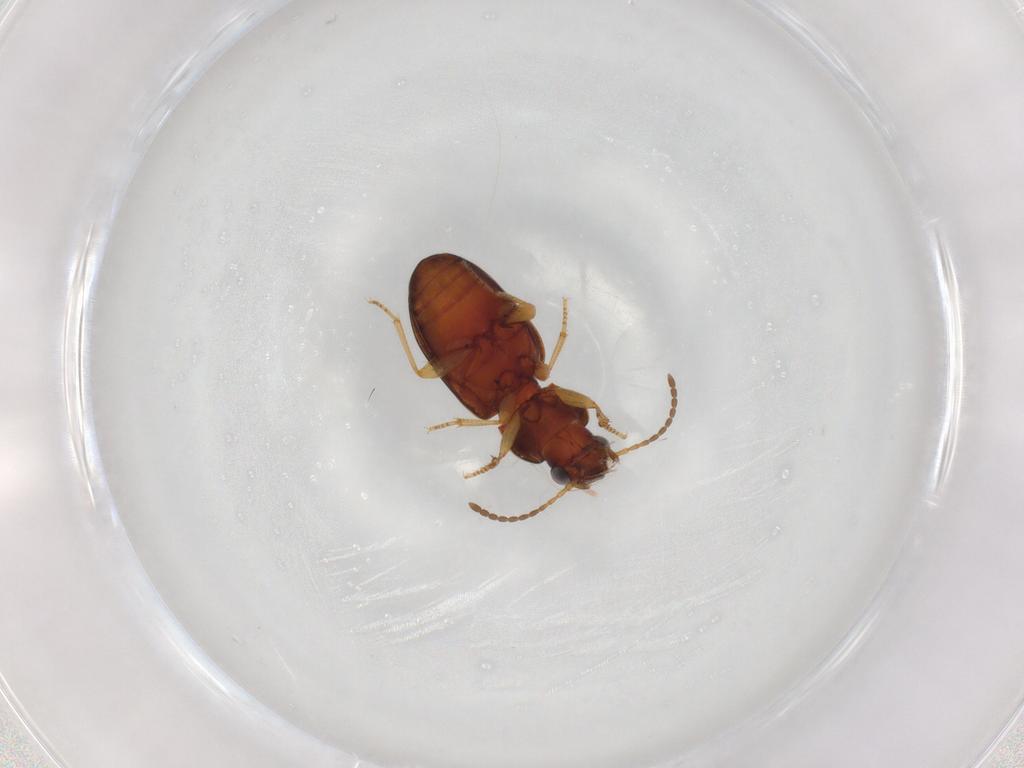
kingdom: Animalia
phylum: Arthropoda
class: Insecta
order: Coleoptera
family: Carabidae
